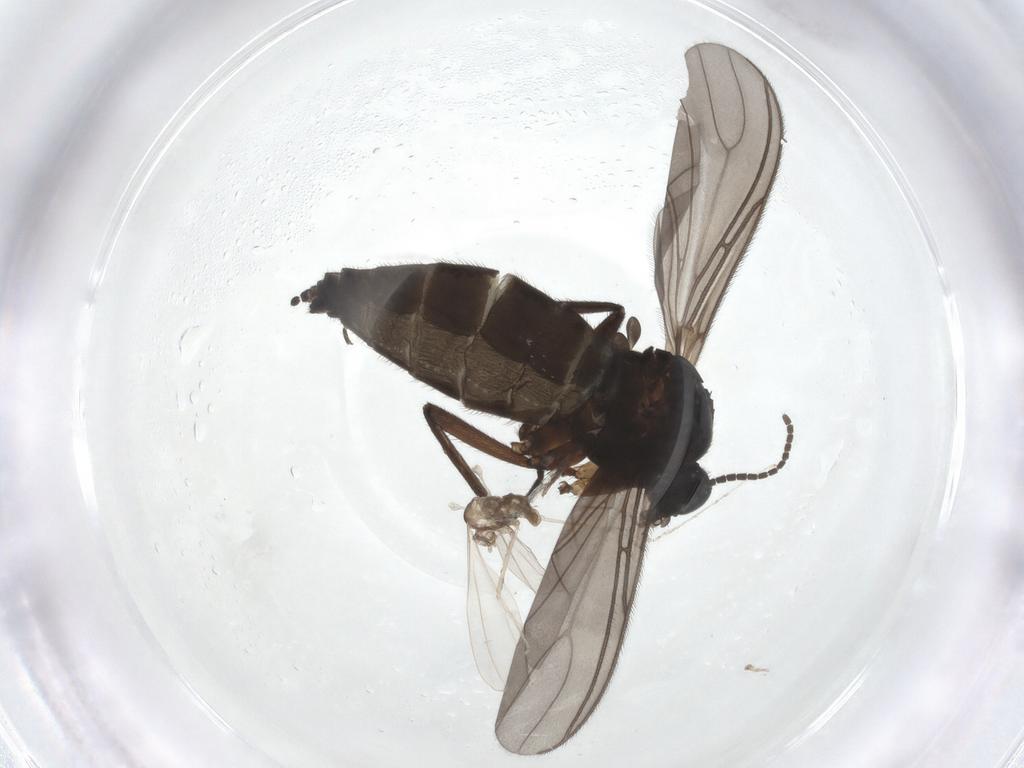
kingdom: Animalia
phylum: Arthropoda
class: Insecta
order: Diptera
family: Sciaridae
